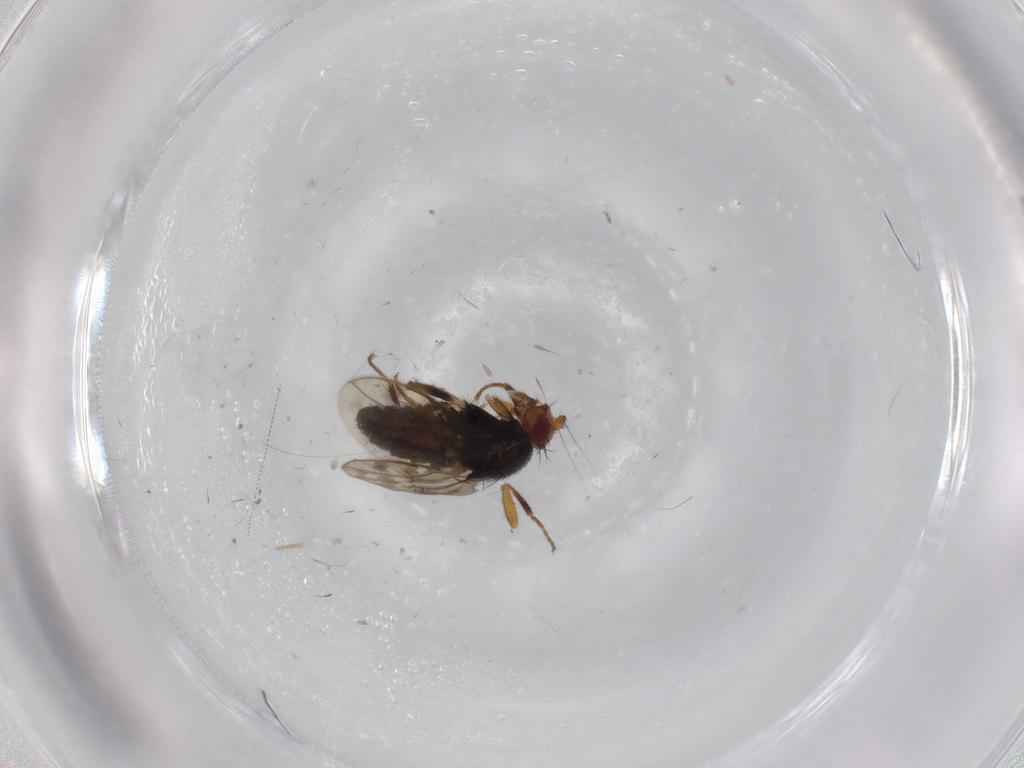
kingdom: Animalia
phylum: Arthropoda
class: Insecta
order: Diptera
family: Sphaeroceridae
